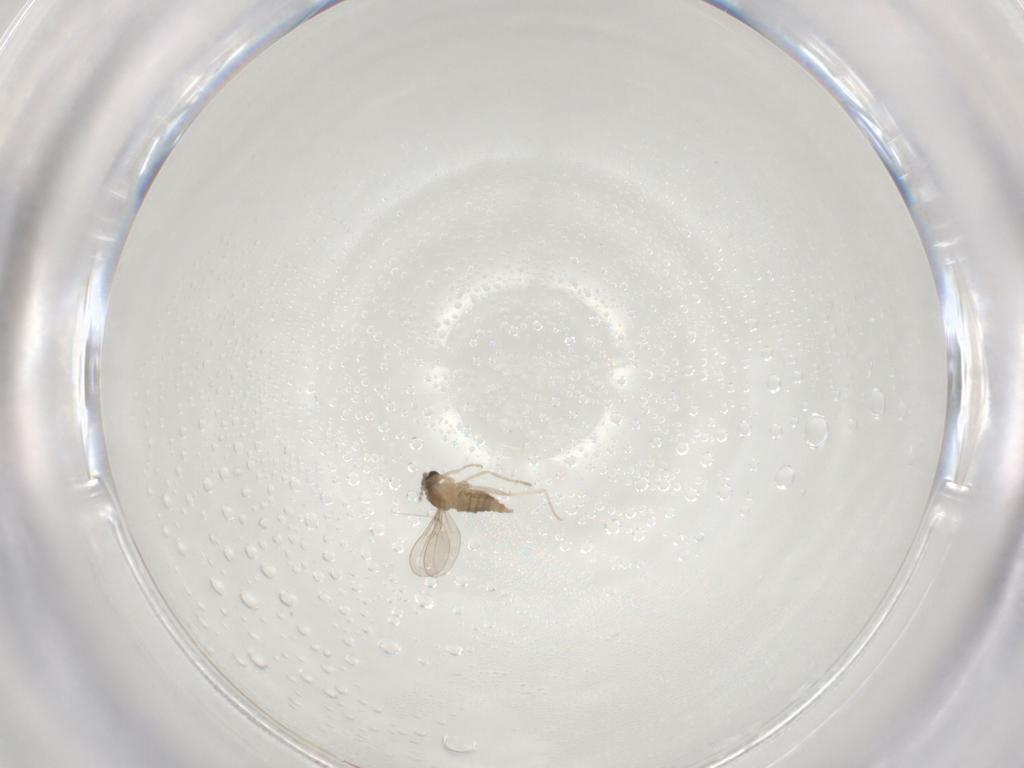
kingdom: Animalia
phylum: Arthropoda
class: Insecta
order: Diptera
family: Cecidomyiidae
